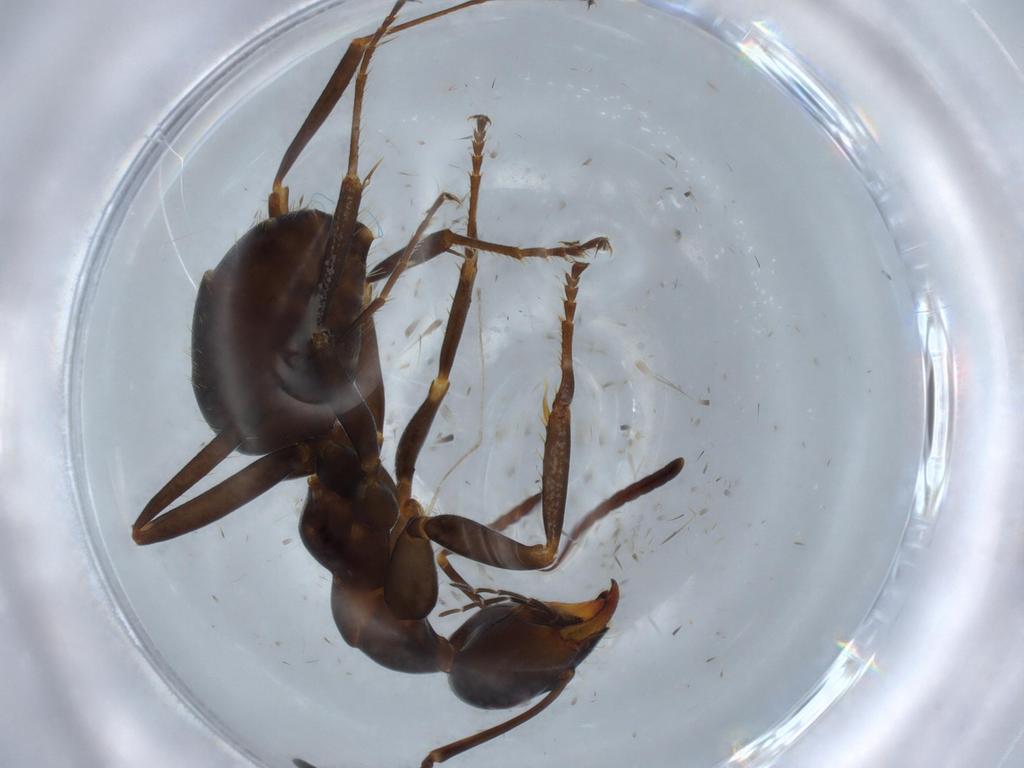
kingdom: Animalia
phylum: Arthropoda
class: Insecta
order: Hymenoptera
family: Formicidae
